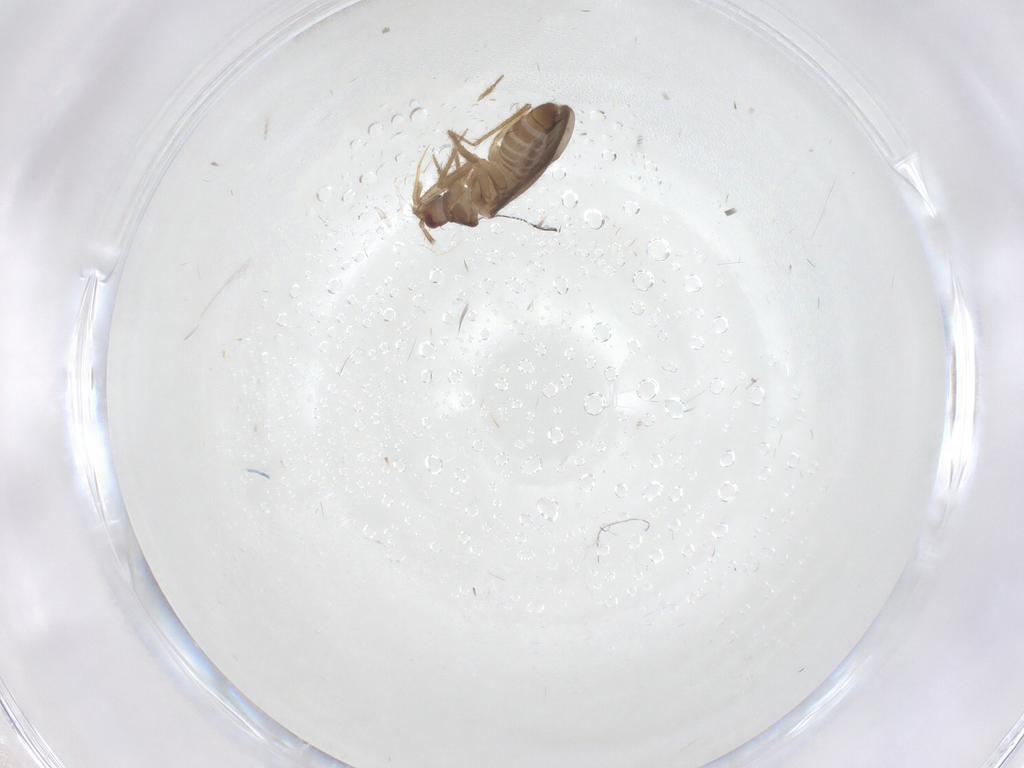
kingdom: Animalia
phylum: Arthropoda
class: Insecta
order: Hemiptera
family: Ceratocombidae
